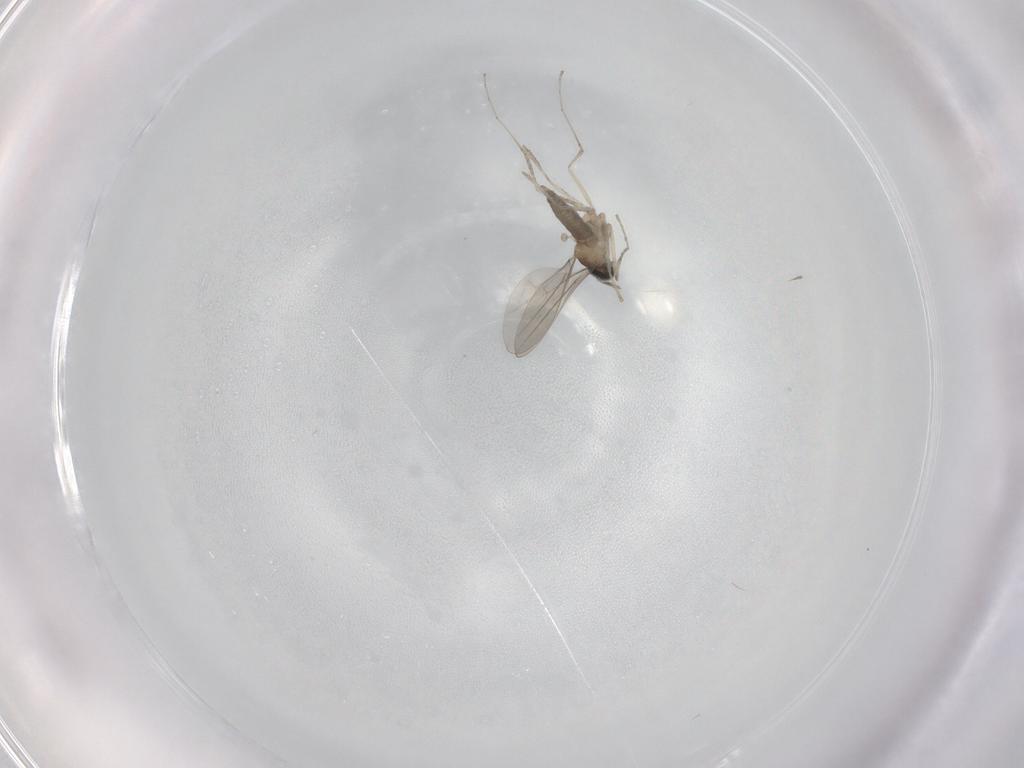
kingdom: Animalia
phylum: Arthropoda
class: Insecta
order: Diptera
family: Cecidomyiidae
